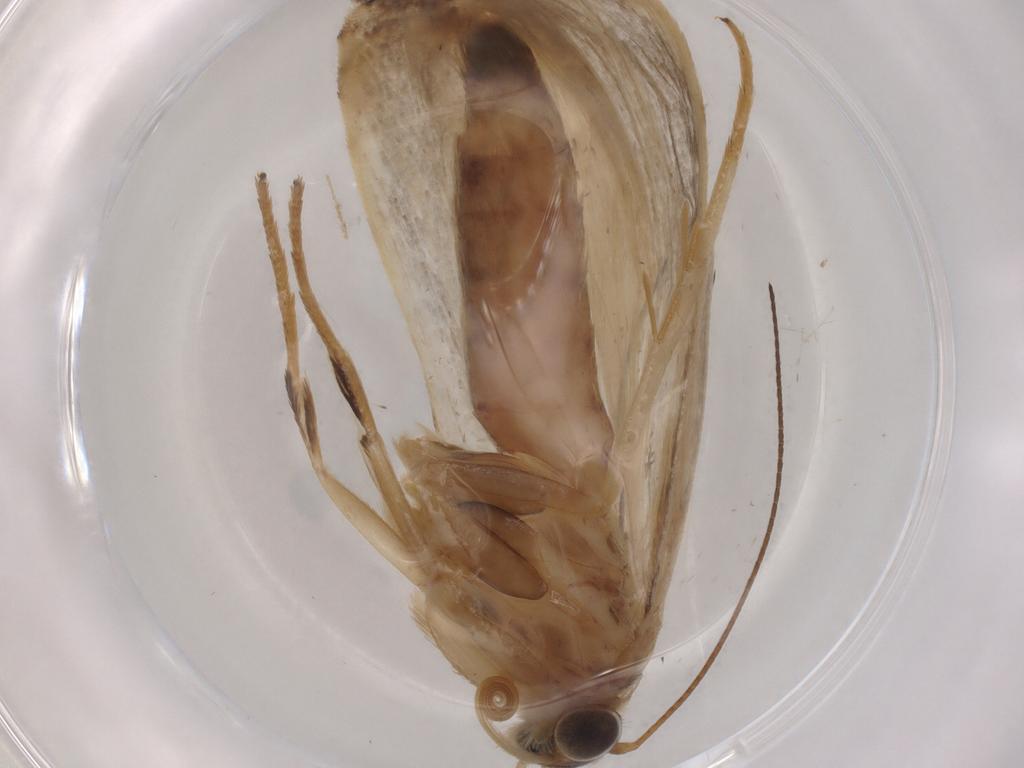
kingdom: Animalia
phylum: Arthropoda
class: Insecta
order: Lepidoptera
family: Crambidae
